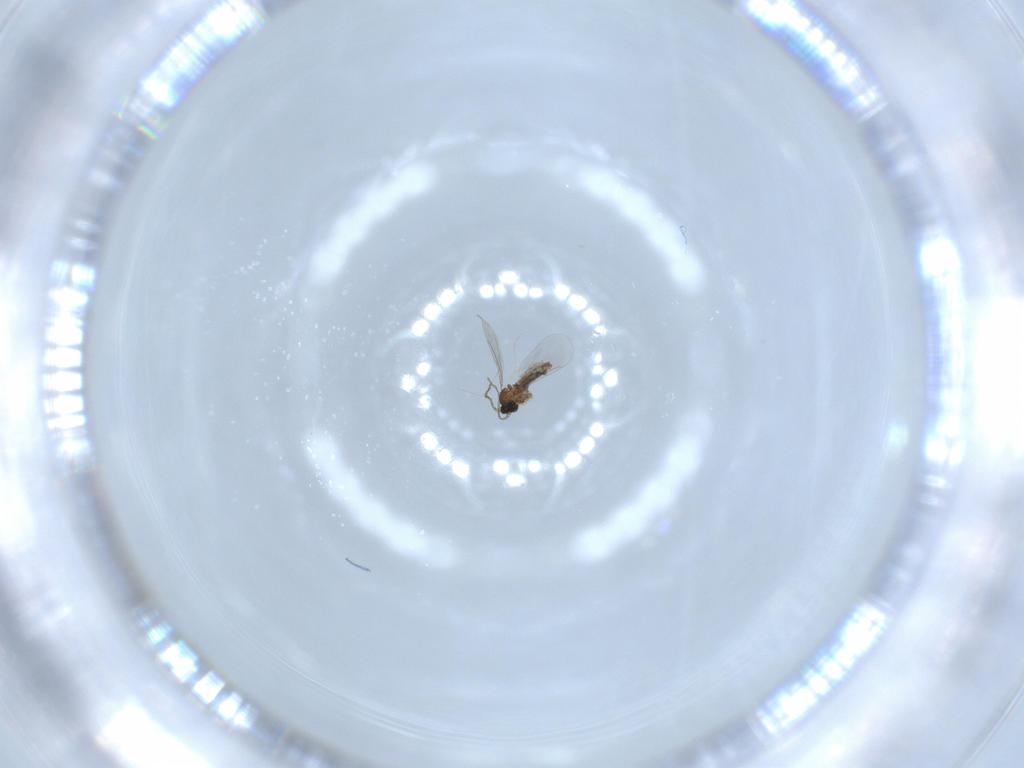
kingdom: Animalia
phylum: Arthropoda
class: Insecta
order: Diptera
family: Cecidomyiidae
